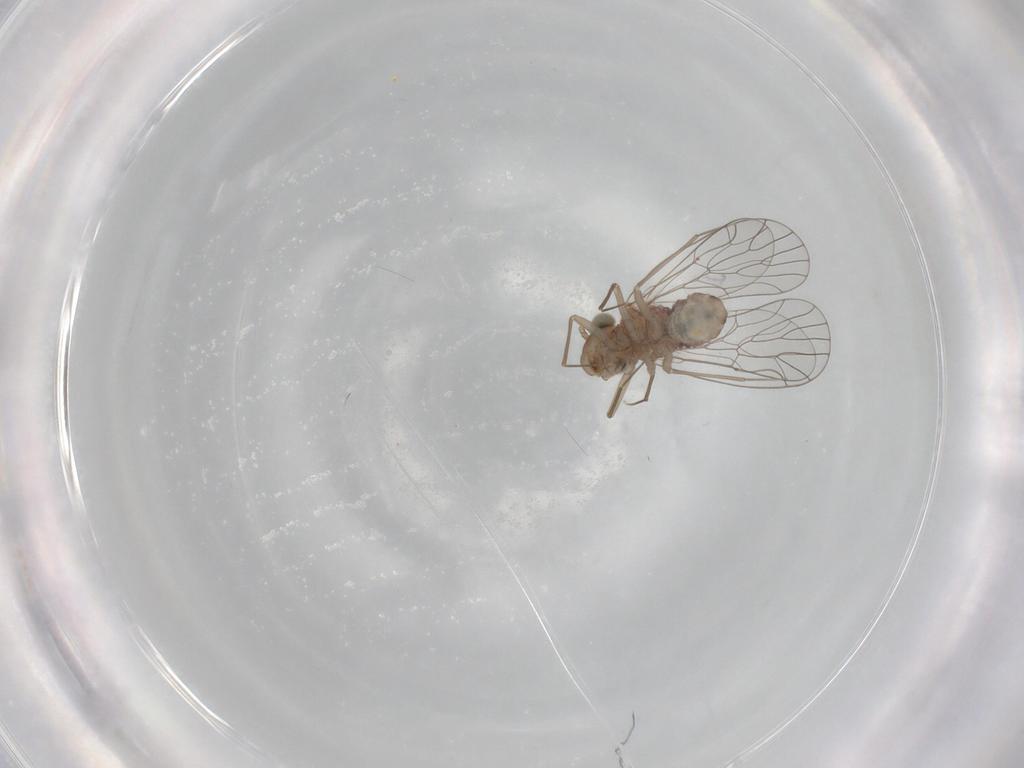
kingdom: Animalia
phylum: Arthropoda
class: Insecta
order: Psocodea
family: Amphientomidae
